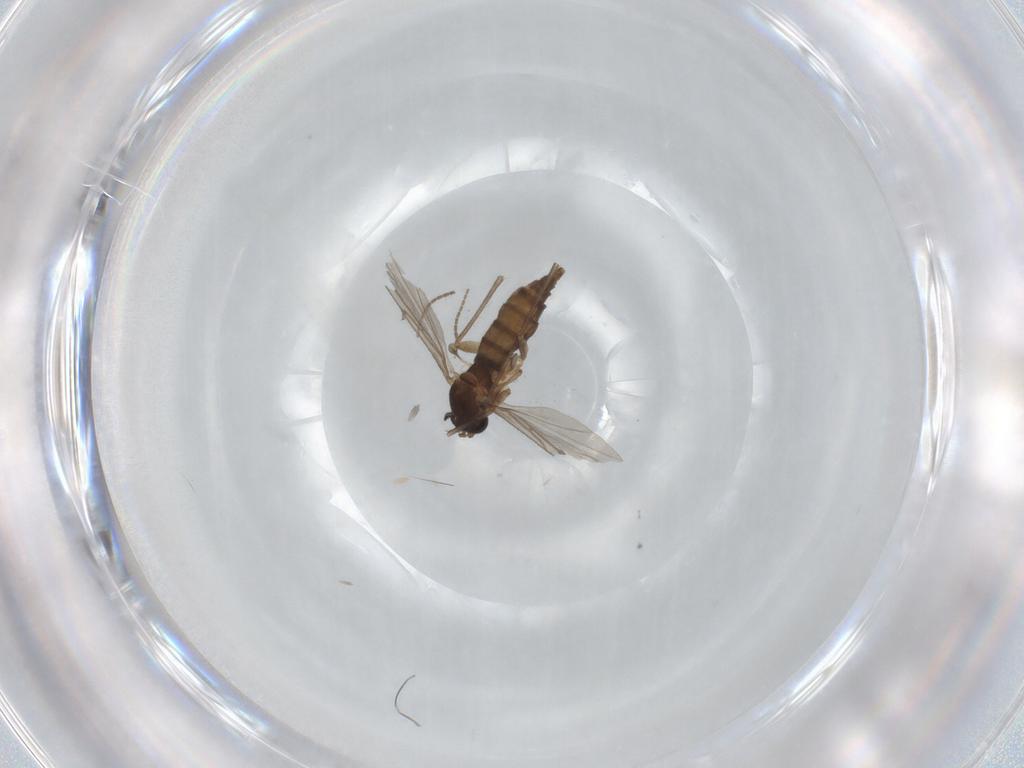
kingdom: Animalia
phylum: Arthropoda
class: Insecta
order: Diptera
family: Sciaridae
